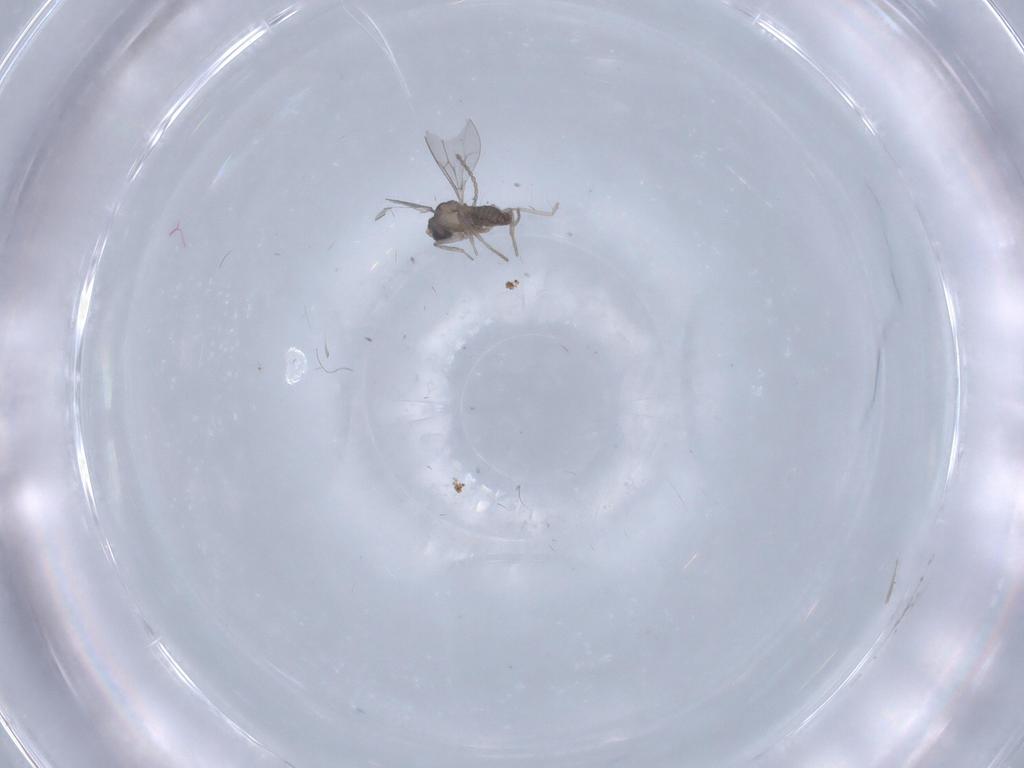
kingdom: Animalia
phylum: Arthropoda
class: Insecta
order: Diptera
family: Cecidomyiidae
